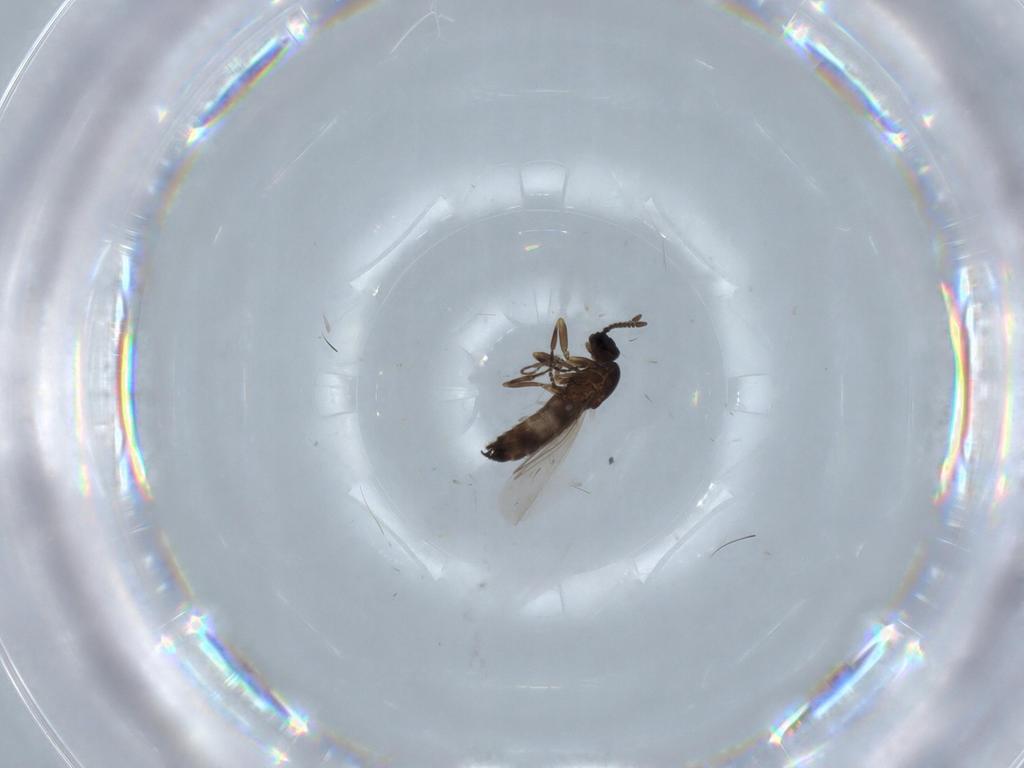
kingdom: Animalia
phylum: Arthropoda
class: Insecta
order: Diptera
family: Scatopsidae
